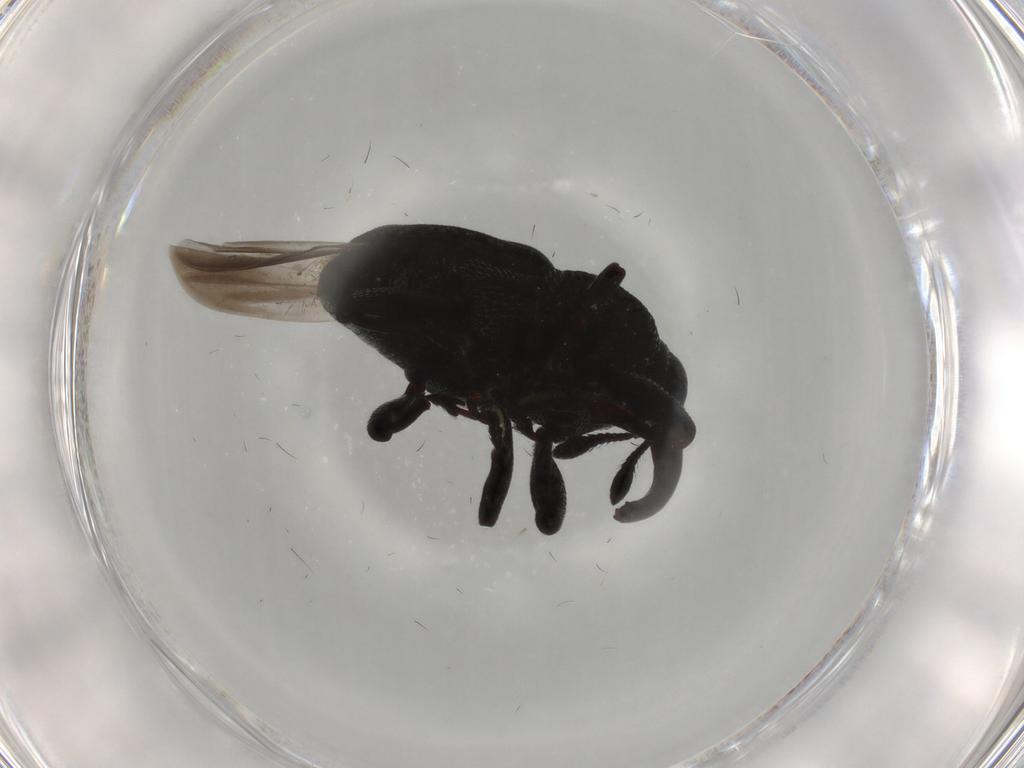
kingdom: Animalia
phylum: Arthropoda
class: Insecta
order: Coleoptera
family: Curculionidae
